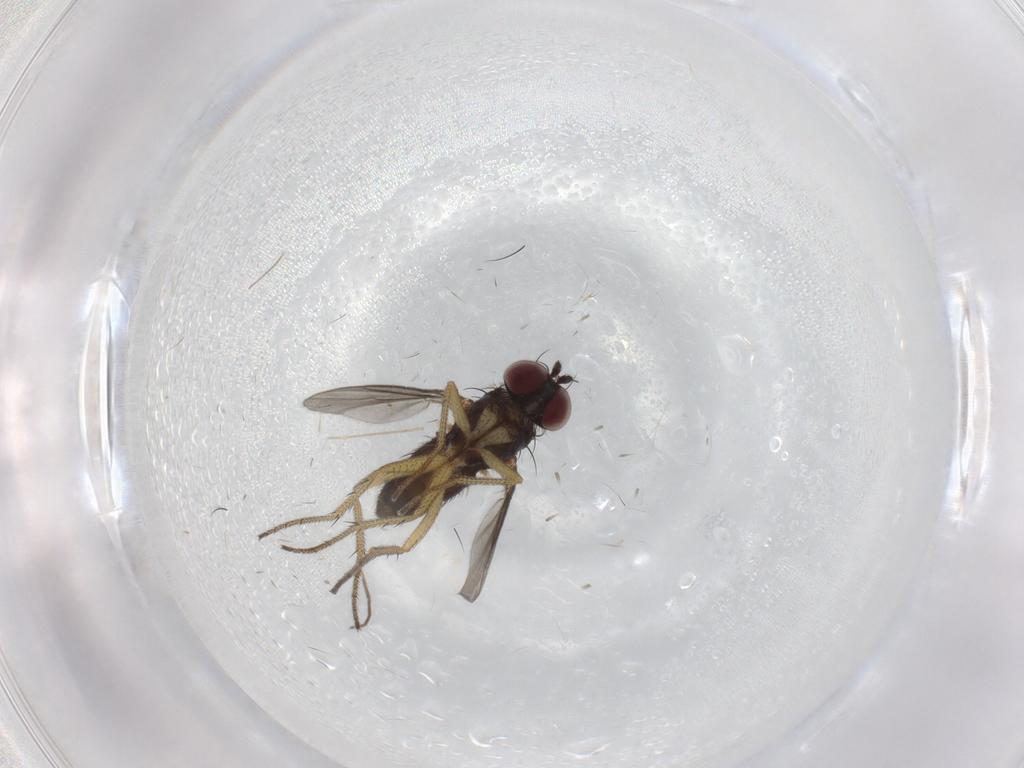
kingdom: Animalia
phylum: Arthropoda
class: Insecta
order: Diptera
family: Dolichopodidae
